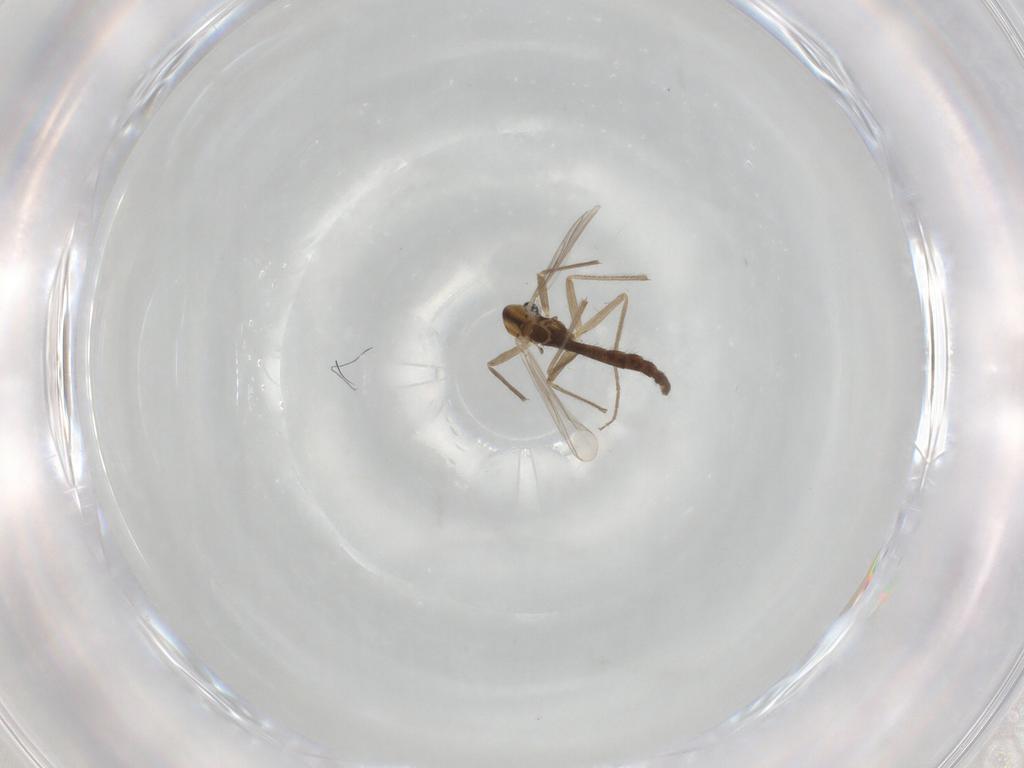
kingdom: Animalia
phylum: Arthropoda
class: Insecta
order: Diptera
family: Chironomidae
